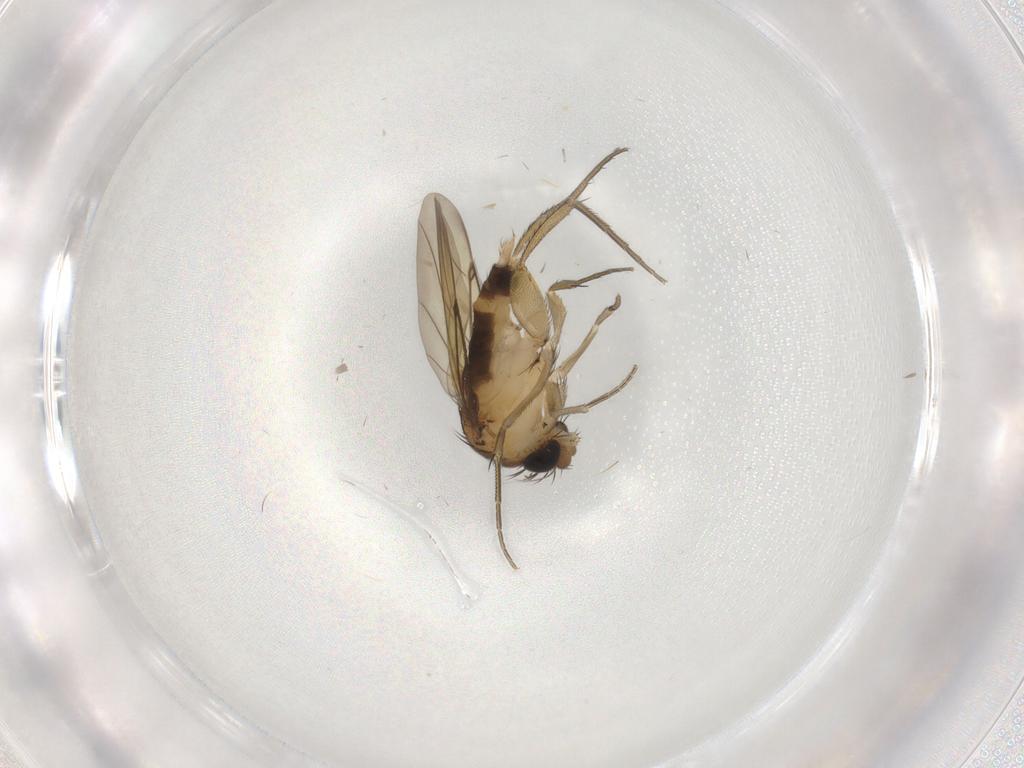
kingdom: Animalia
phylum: Arthropoda
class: Insecta
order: Diptera
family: Phoridae
